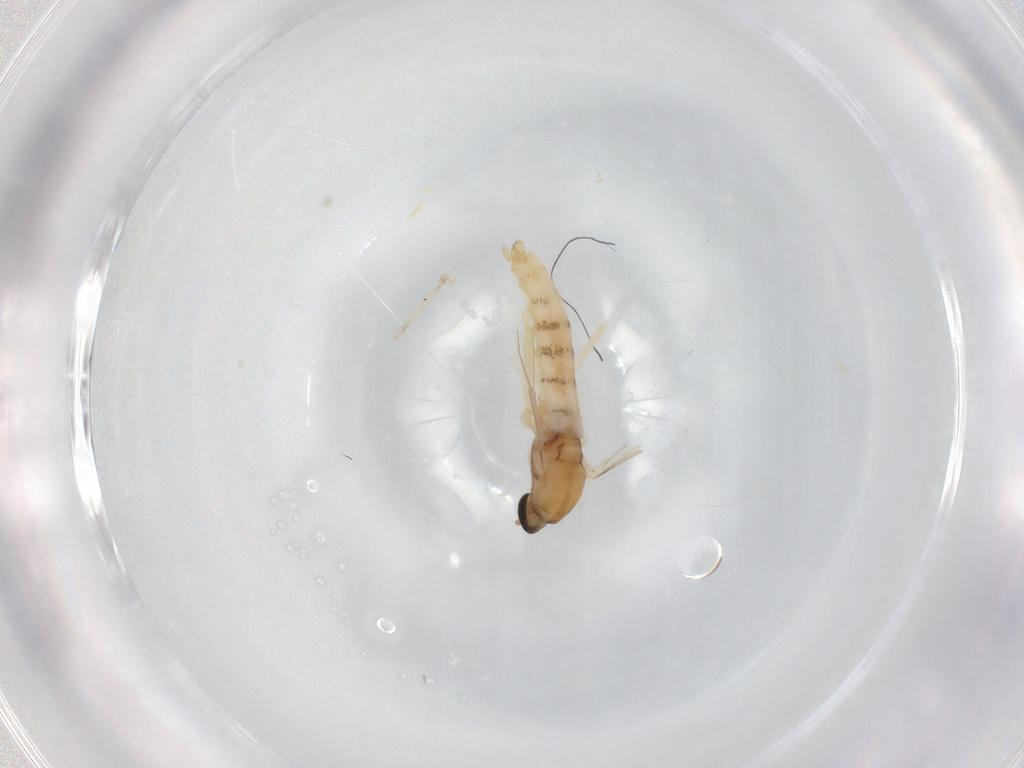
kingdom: Animalia
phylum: Arthropoda
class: Insecta
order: Diptera
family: Cecidomyiidae
